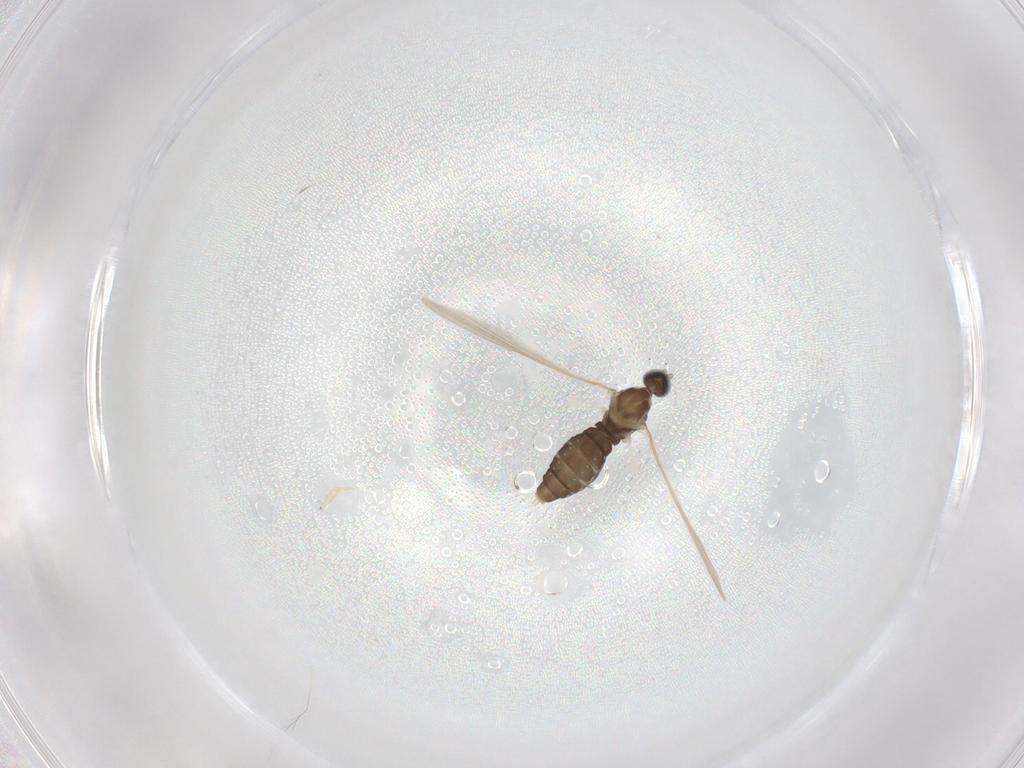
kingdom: Animalia
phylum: Arthropoda
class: Insecta
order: Diptera
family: Cecidomyiidae
